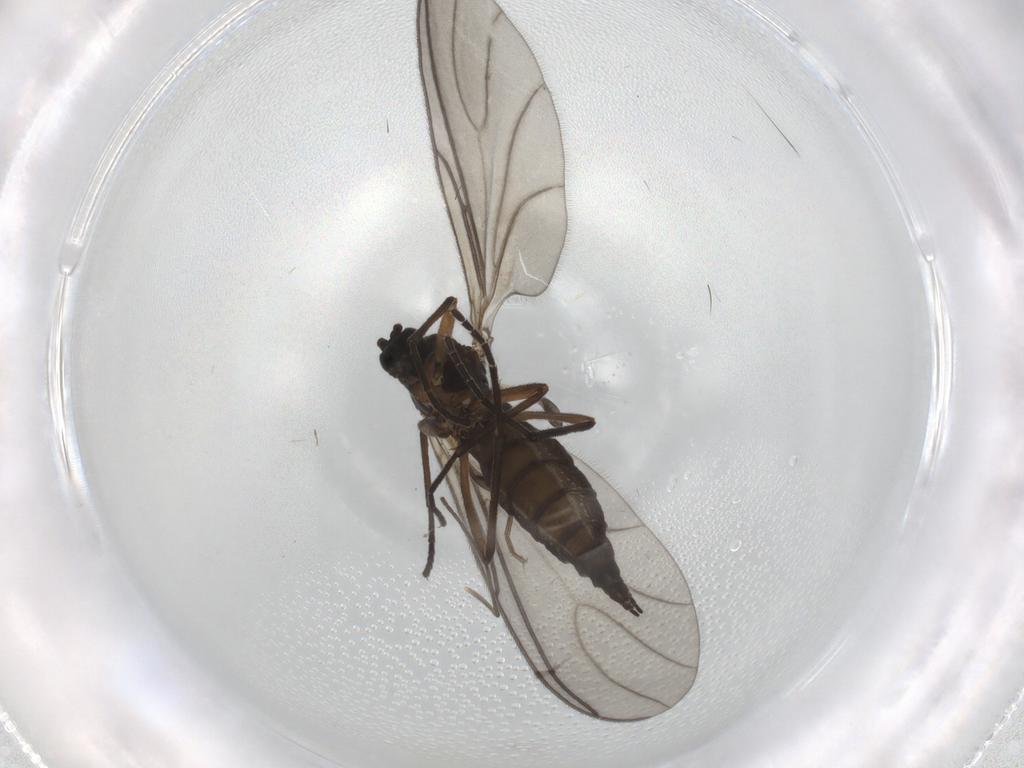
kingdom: Animalia
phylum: Arthropoda
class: Insecta
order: Diptera
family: Sciaridae
